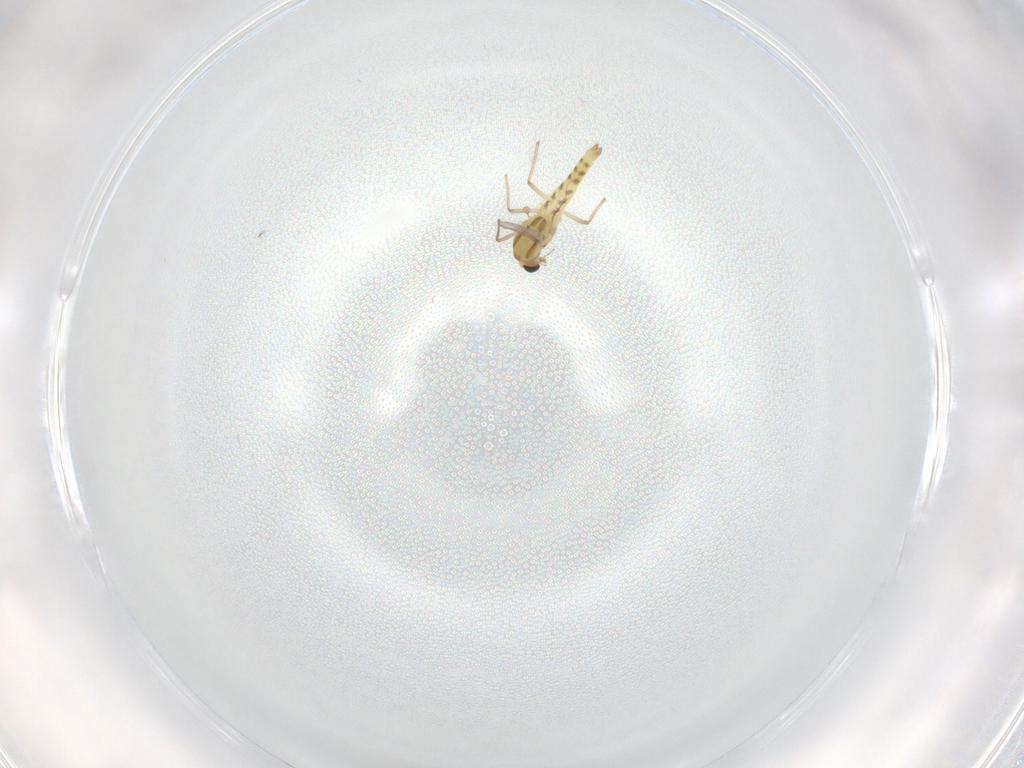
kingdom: Animalia
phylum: Arthropoda
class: Insecta
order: Diptera
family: Chironomidae
